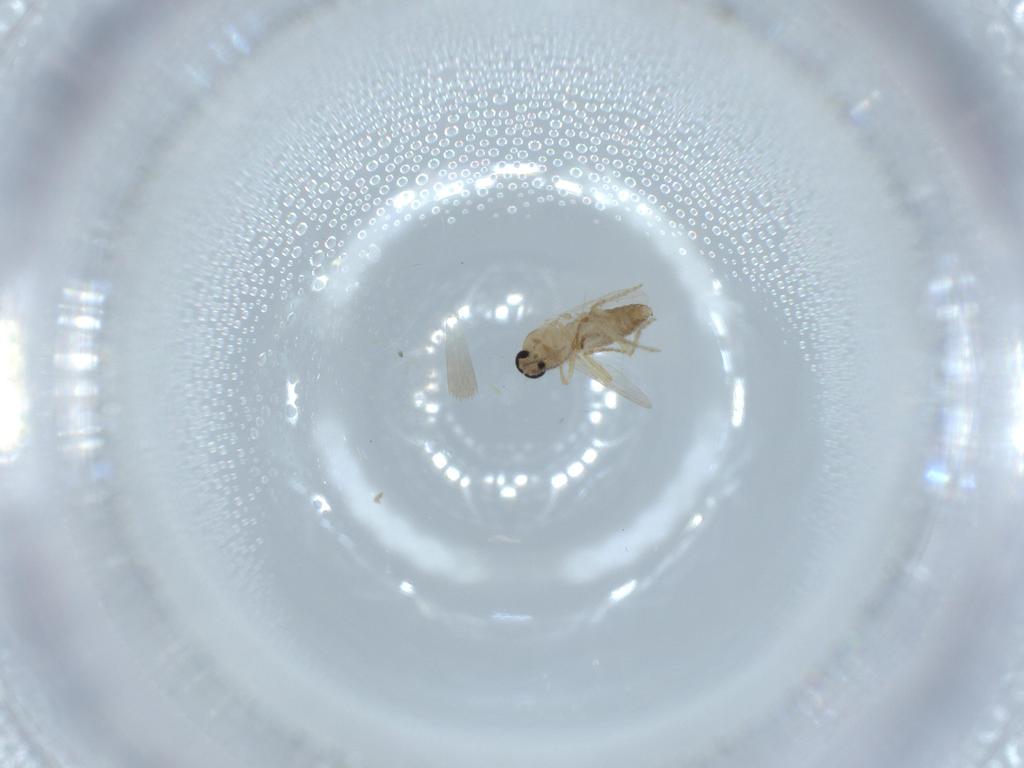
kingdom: Animalia
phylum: Arthropoda
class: Insecta
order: Diptera
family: Ceratopogonidae
